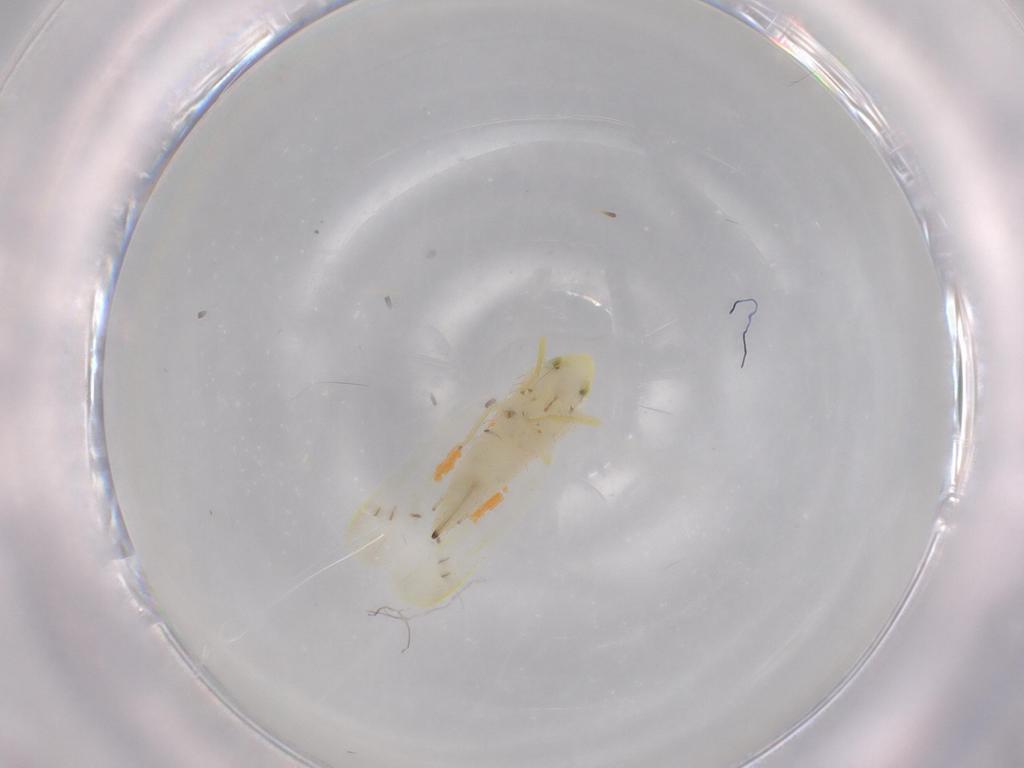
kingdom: Animalia
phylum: Arthropoda
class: Insecta
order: Hemiptera
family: Cicadellidae
